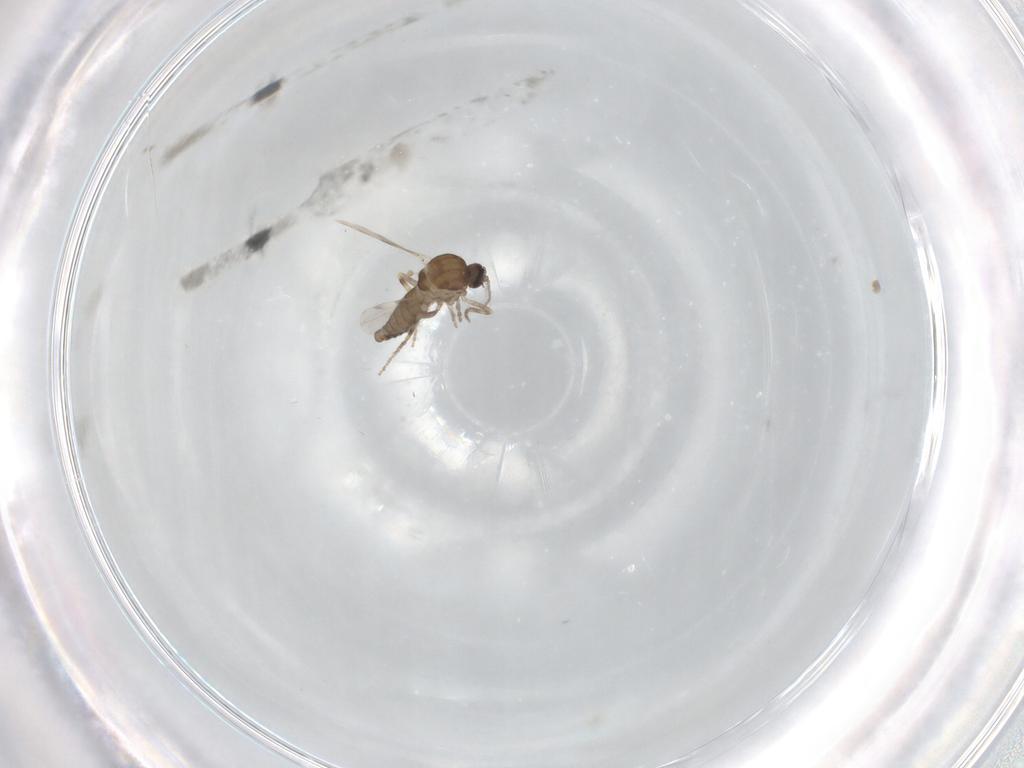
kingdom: Animalia
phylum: Arthropoda
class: Insecta
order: Diptera
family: Ceratopogonidae
